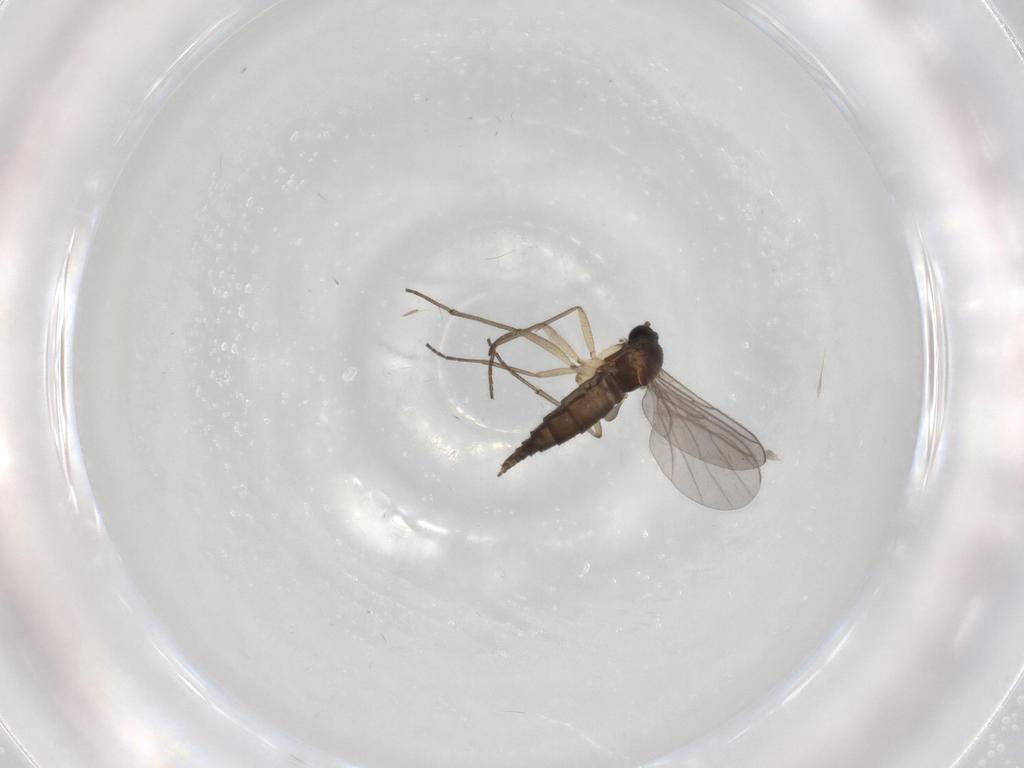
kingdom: Animalia
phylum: Arthropoda
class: Insecta
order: Diptera
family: Sciaridae
